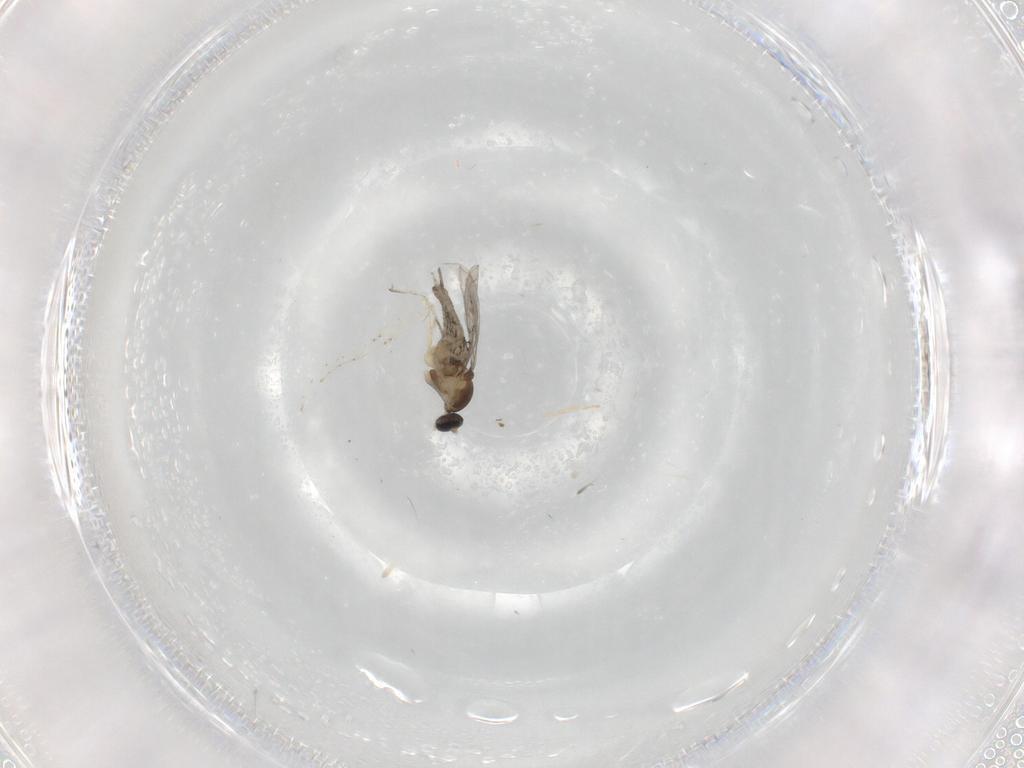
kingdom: Animalia
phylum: Arthropoda
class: Insecta
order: Diptera
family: Cecidomyiidae
